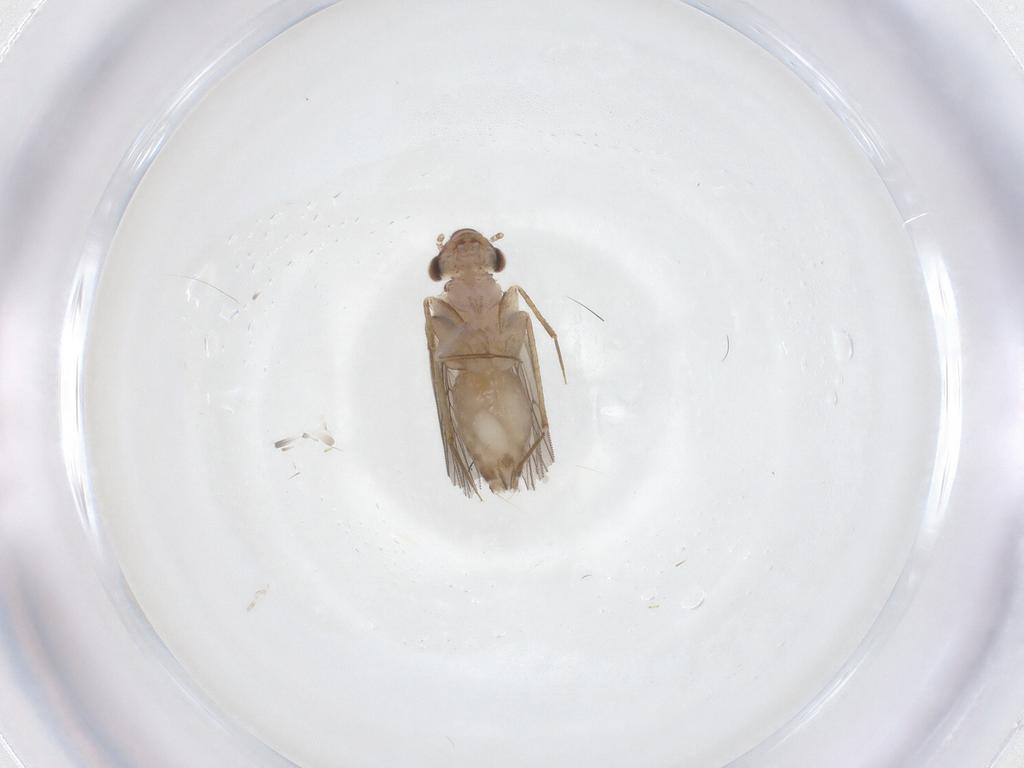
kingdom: Animalia
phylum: Arthropoda
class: Insecta
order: Psocodea
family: Lepidopsocidae
